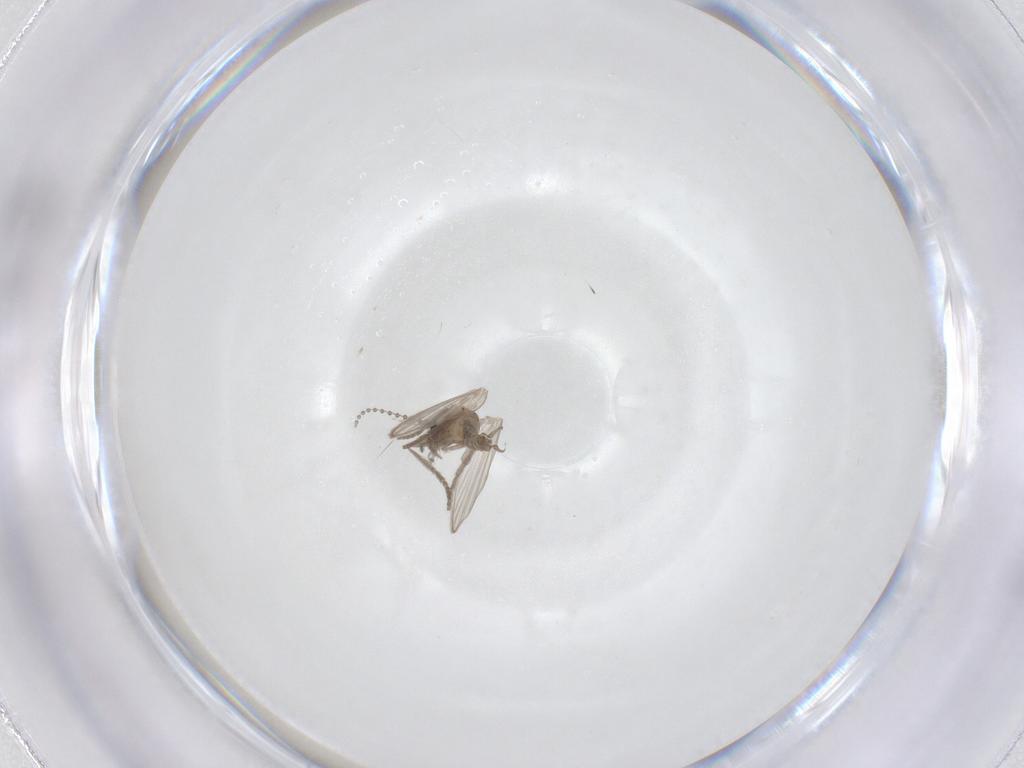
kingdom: Animalia
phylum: Arthropoda
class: Insecta
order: Diptera
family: Psychodidae
